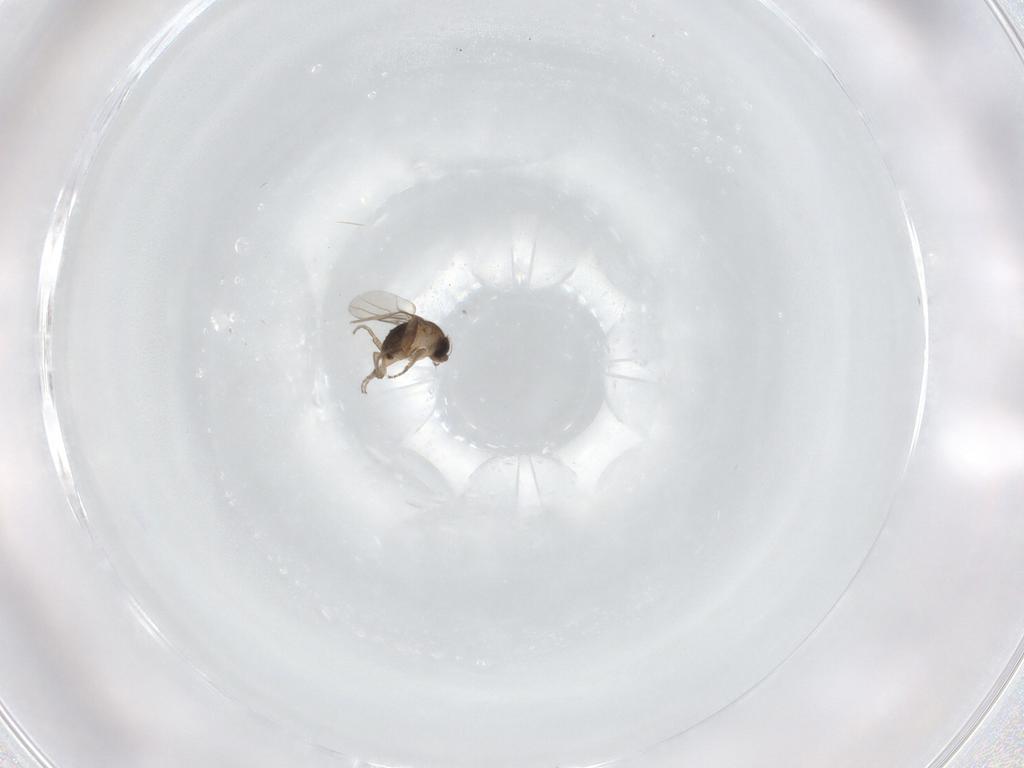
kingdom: Animalia
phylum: Arthropoda
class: Insecta
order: Diptera
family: Phoridae
